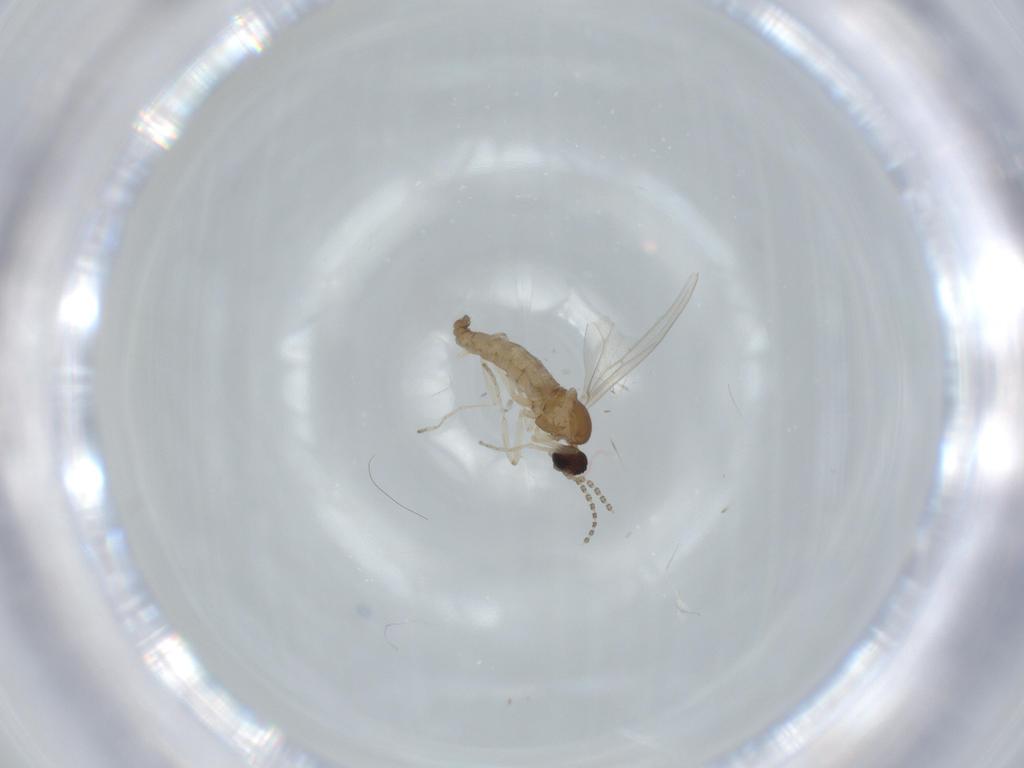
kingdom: Animalia
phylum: Arthropoda
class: Insecta
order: Diptera
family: Cecidomyiidae
